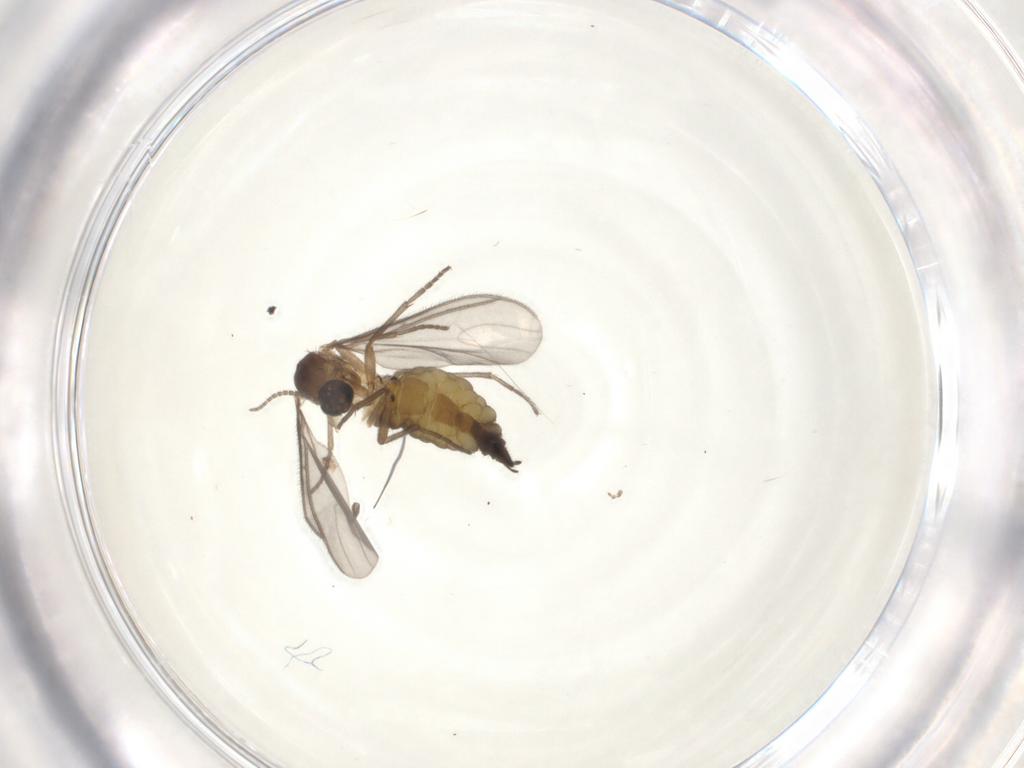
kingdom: Animalia
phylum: Arthropoda
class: Insecta
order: Diptera
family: Sciaridae
